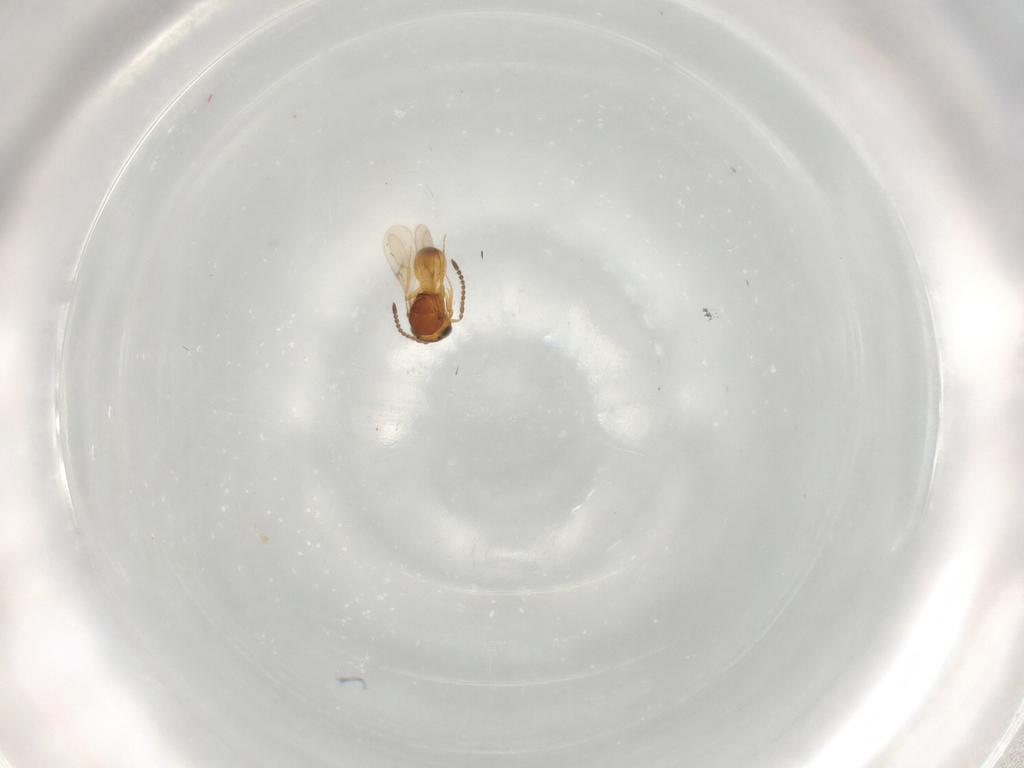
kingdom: Animalia
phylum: Arthropoda
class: Insecta
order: Hymenoptera
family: Scelionidae
